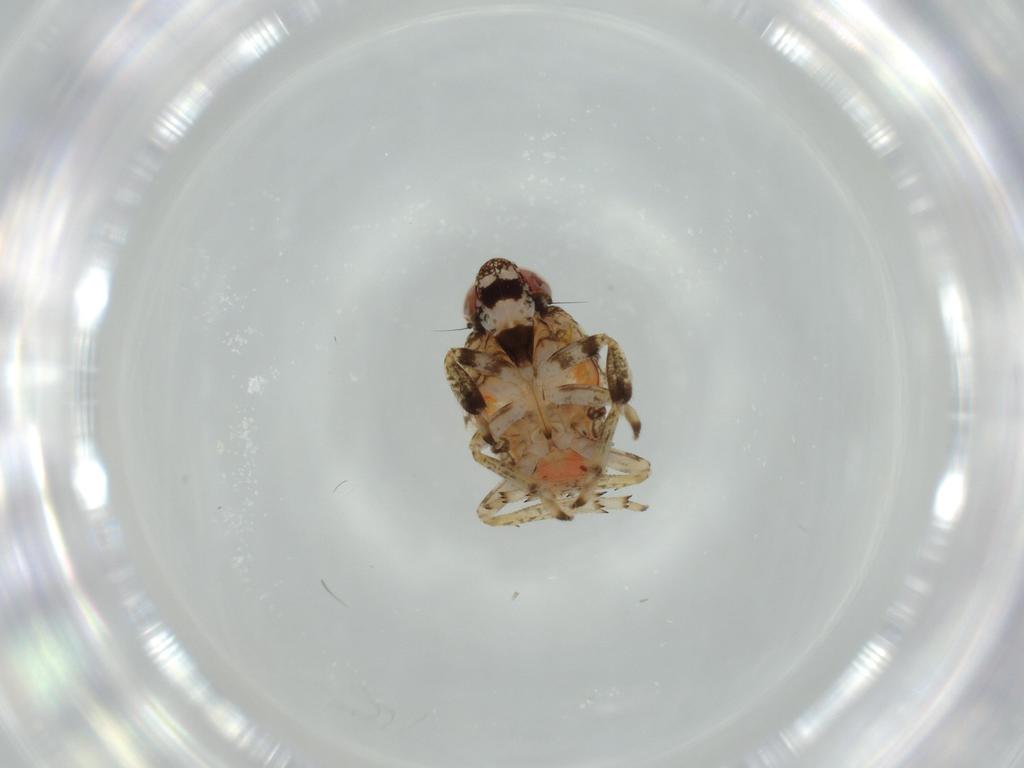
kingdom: Animalia
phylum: Arthropoda
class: Insecta
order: Hemiptera
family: Issidae
